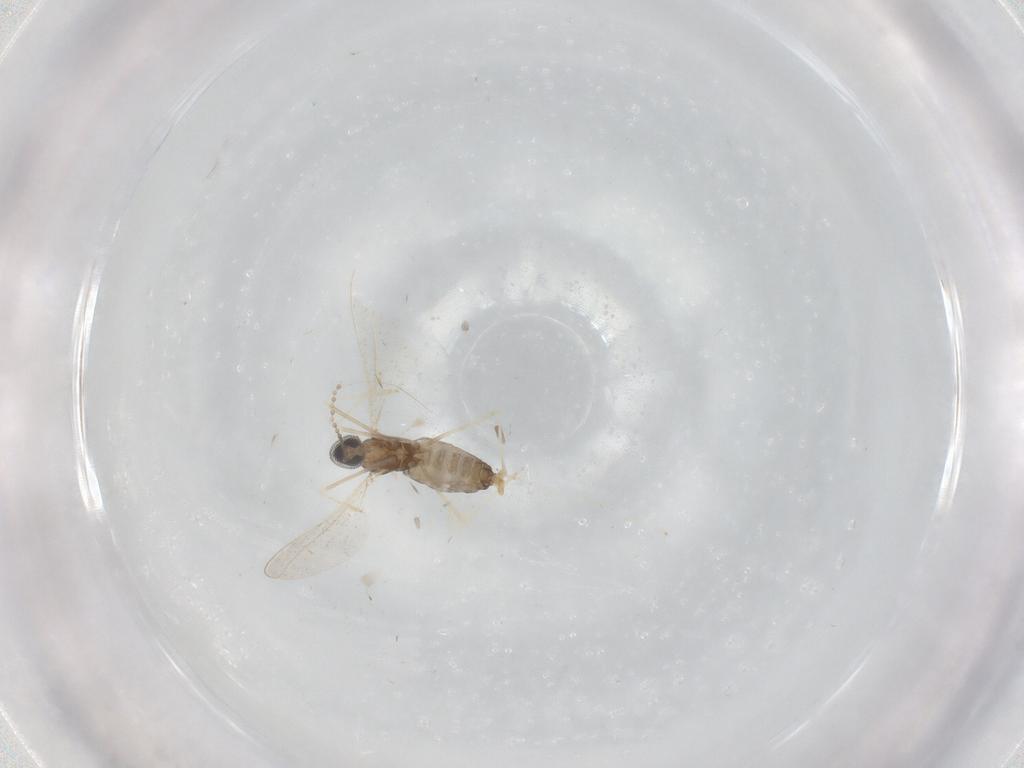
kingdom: Animalia
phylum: Arthropoda
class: Insecta
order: Diptera
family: Cecidomyiidae
